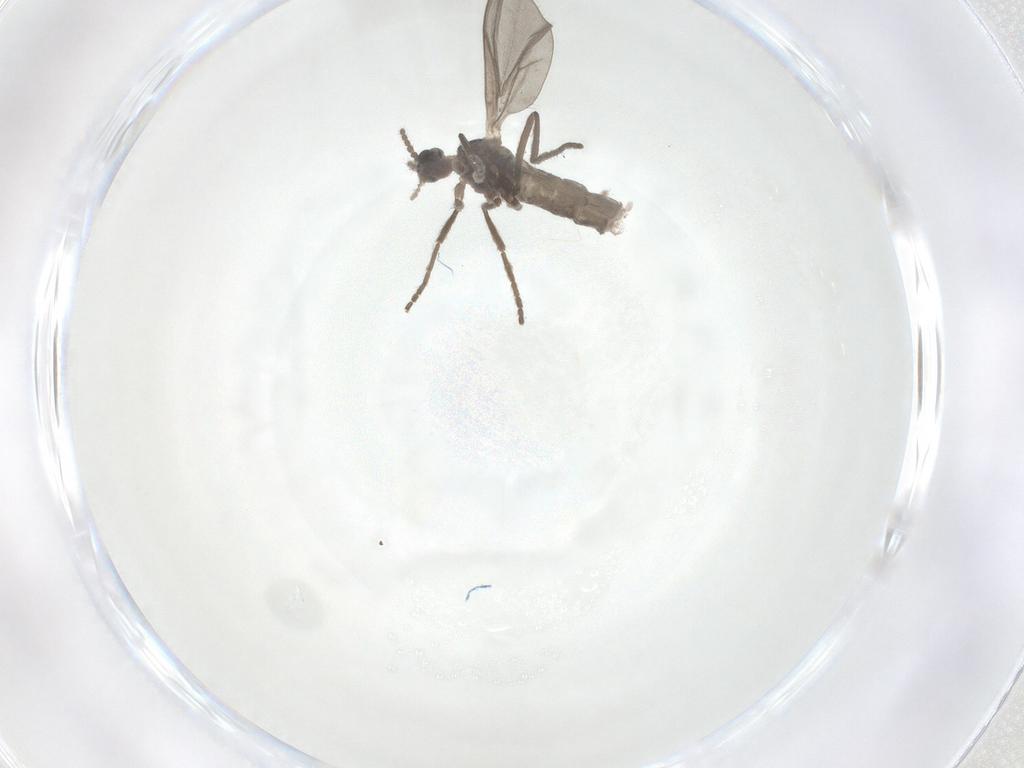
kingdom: Animalia
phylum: Arthropoda
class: Insecta
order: Diptera
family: Cecidomyiidae
